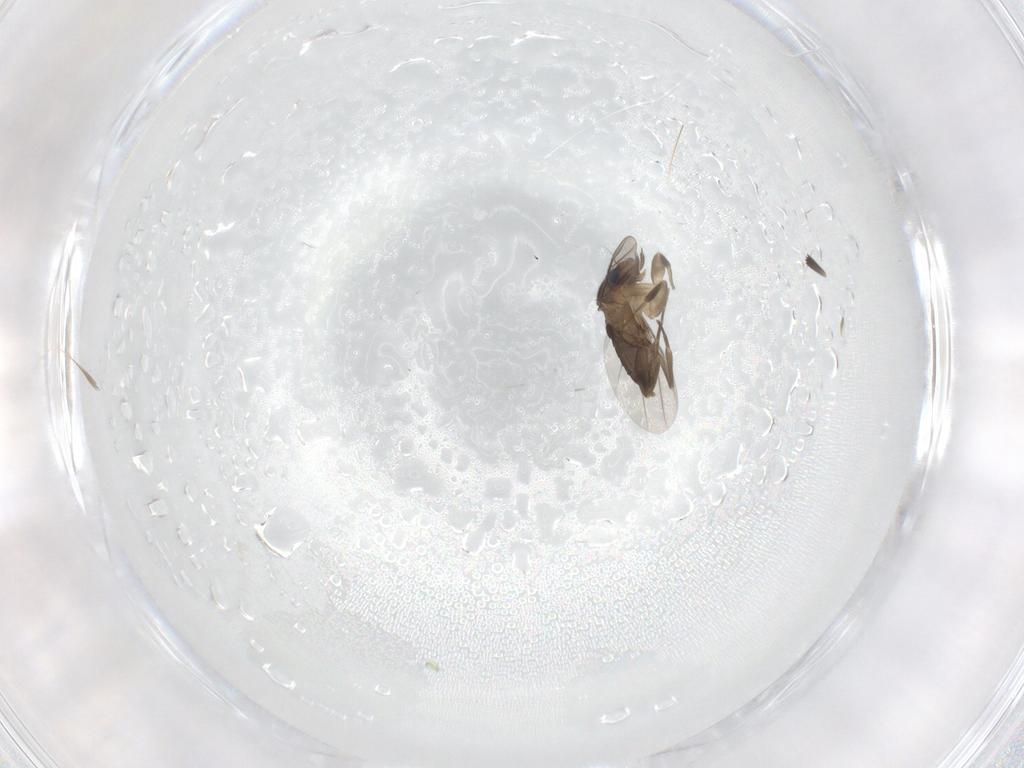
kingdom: Animalia
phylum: Arthropoda
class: Insecta
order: Diptera
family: Phoridae
